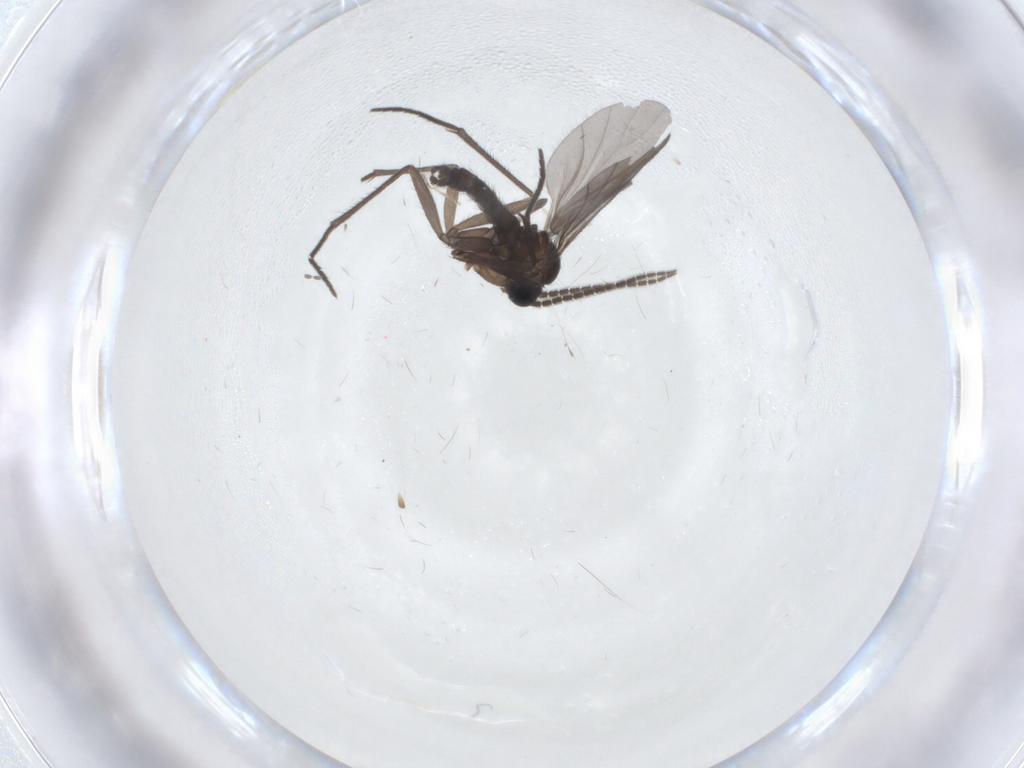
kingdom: Animalia
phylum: Arthropoda
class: Insecta
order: Diptera
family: Sciaridae
